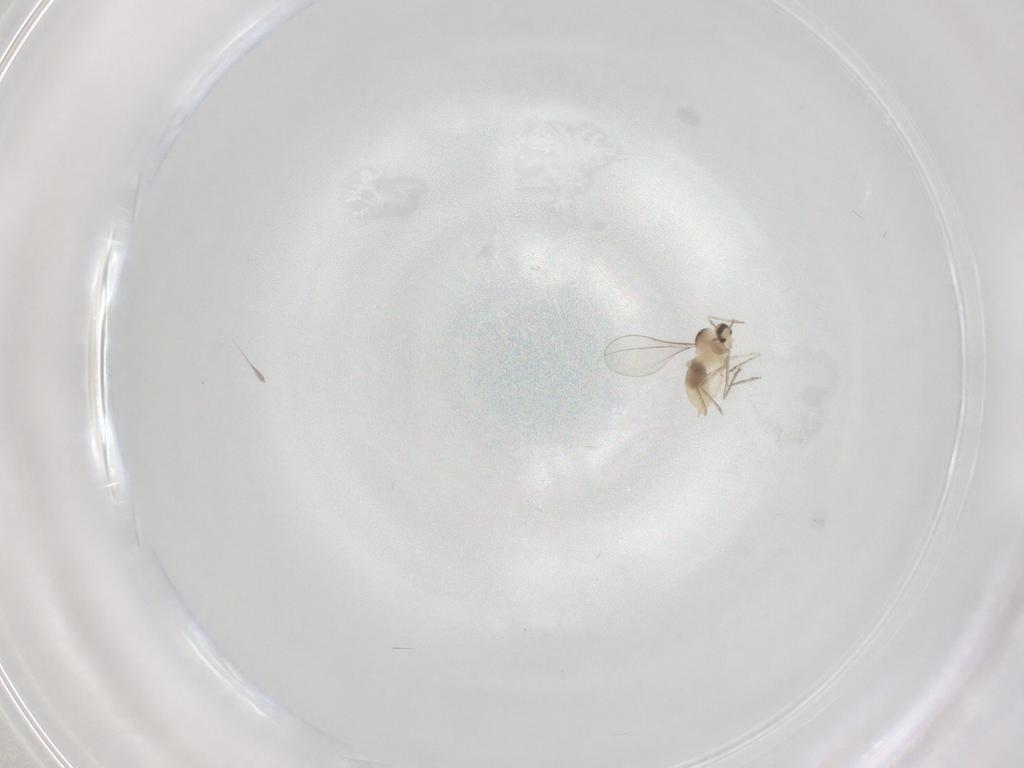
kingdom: Animalia
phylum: Arthropoda
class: Insecta
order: Diptera
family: Cecidomyiidae
